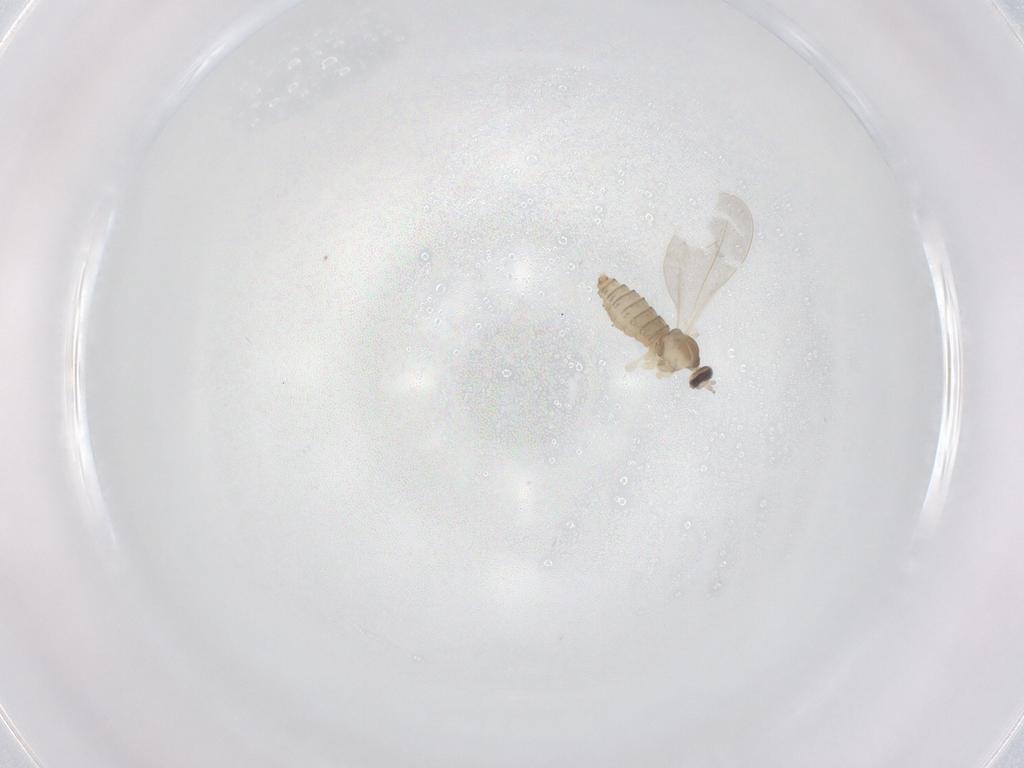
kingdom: Animalia
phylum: Arthropoda
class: Insecta
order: Diptera
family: Cecidomyiidae
